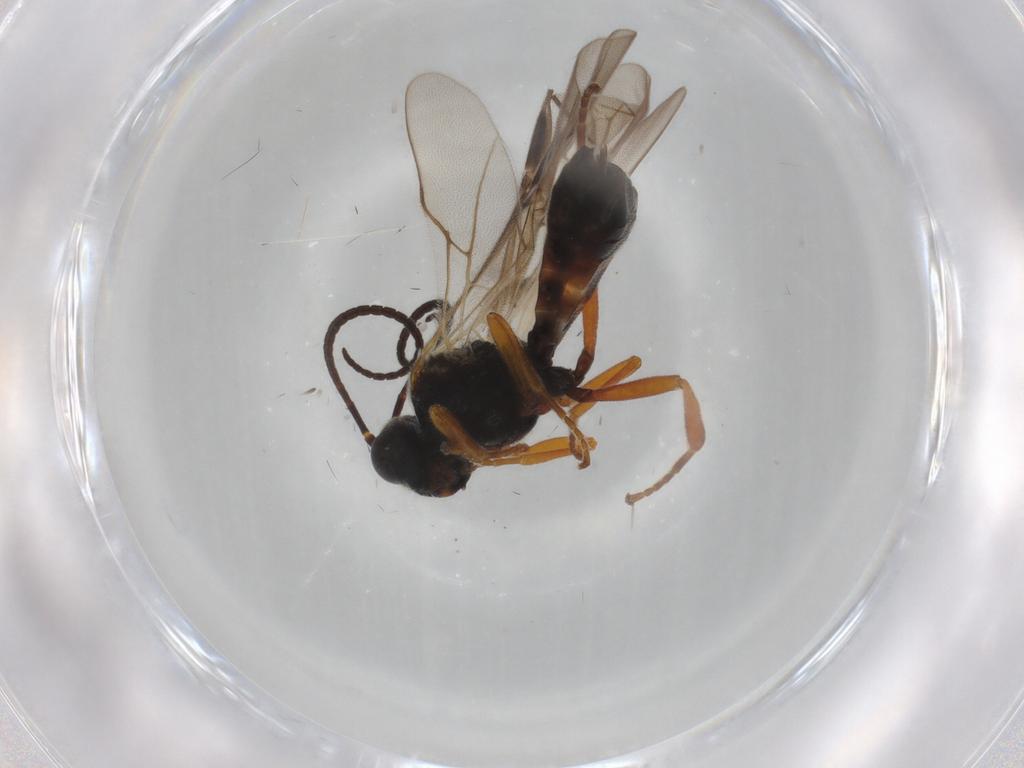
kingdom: Animalia
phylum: Arthropoda
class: Insecta
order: Hymenoptera
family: Braconidae
